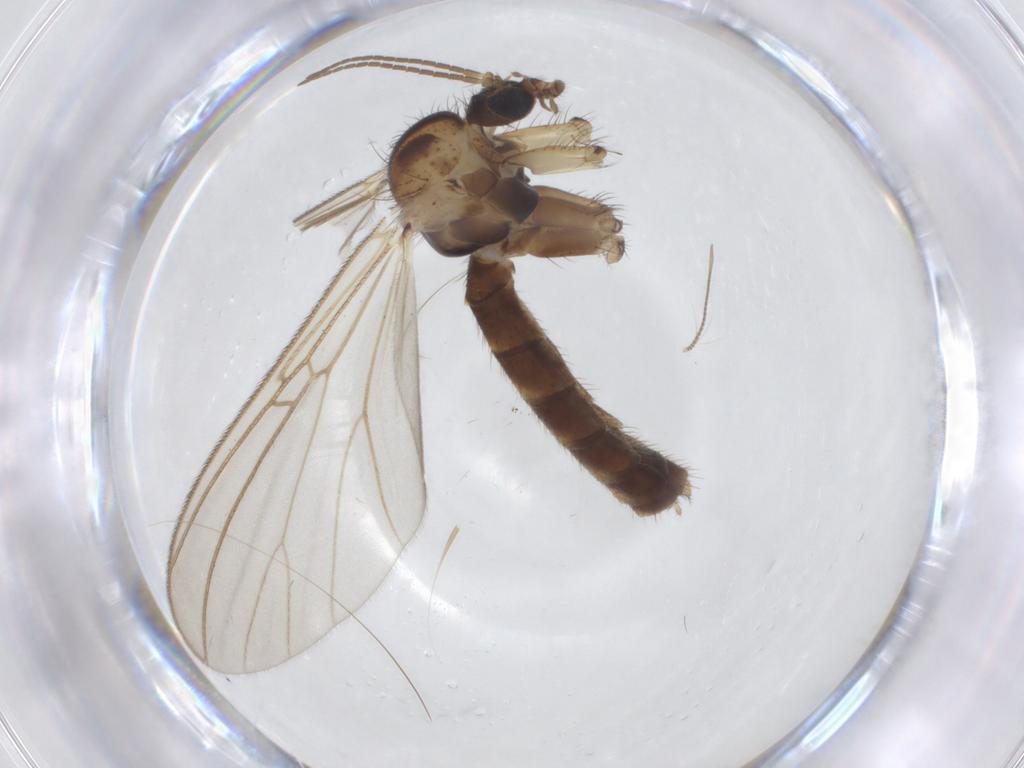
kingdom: Animalia
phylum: Arthropoda
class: Insecta
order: Diptera
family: Mycetophilidae
